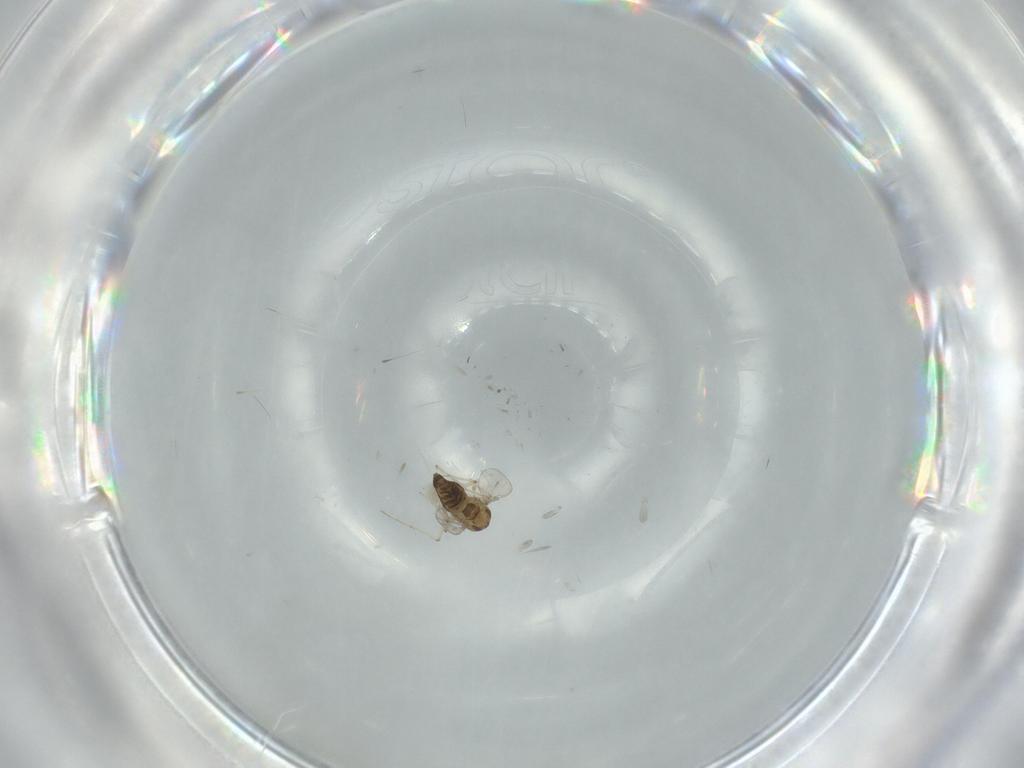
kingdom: Animalia
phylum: Arthropoda
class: Insecta
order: Diptera
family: Chironomidae
